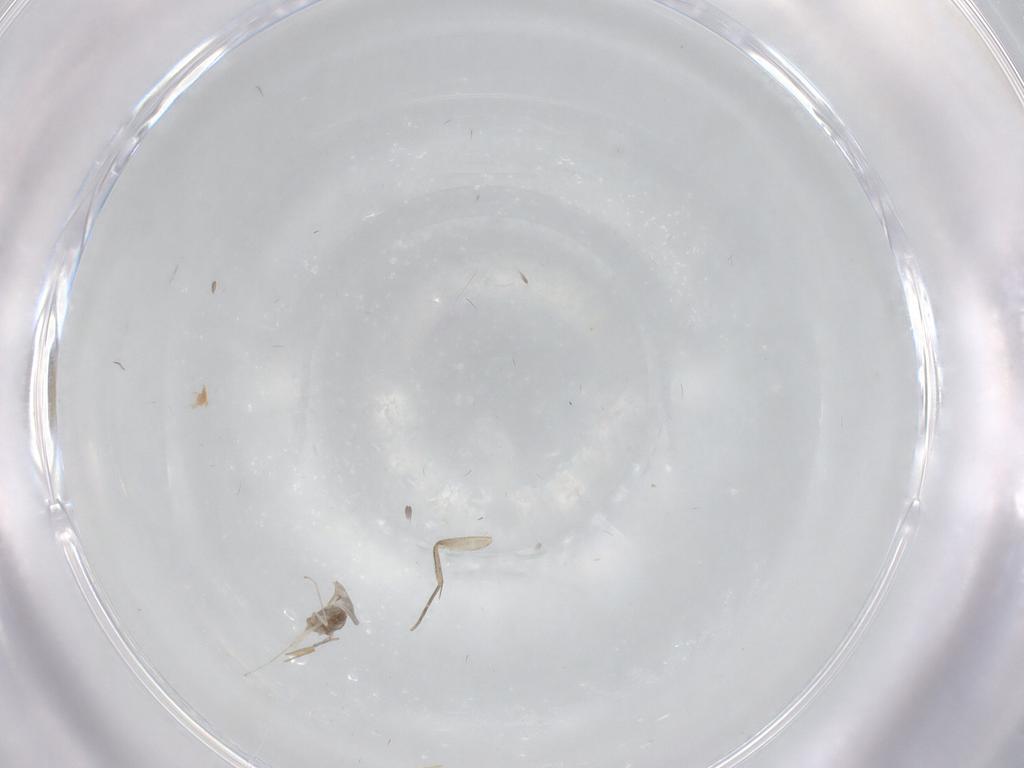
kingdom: Animalia
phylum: Arthropoda
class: Insecta
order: Diptera
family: Cecidomyiidae
